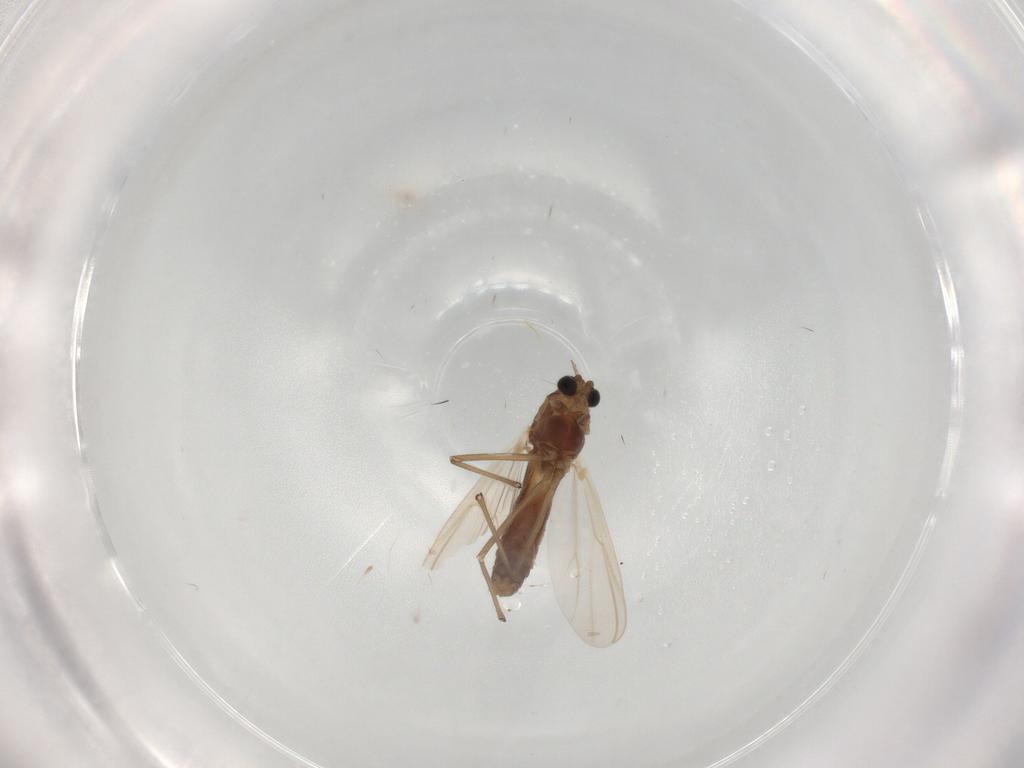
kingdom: Animalia
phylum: Arthropoda
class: Insecta
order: Diptera
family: Chironomidae
